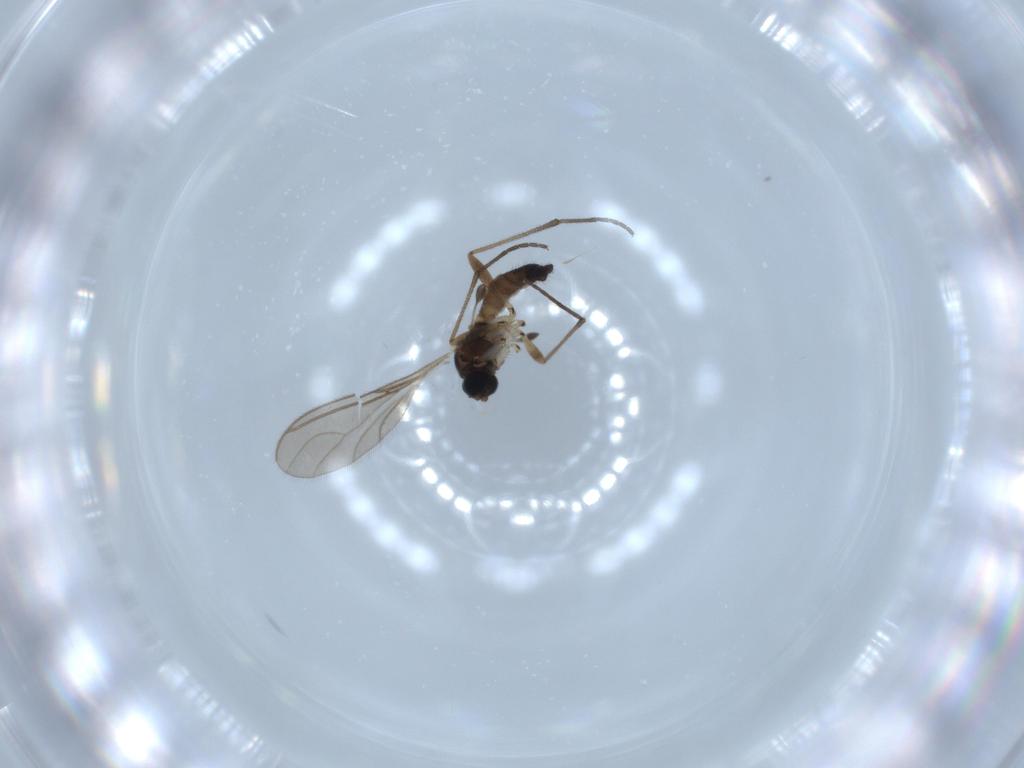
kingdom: Animalia
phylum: Arthropoda
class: Insecta
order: Diptera
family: Sciaridae
